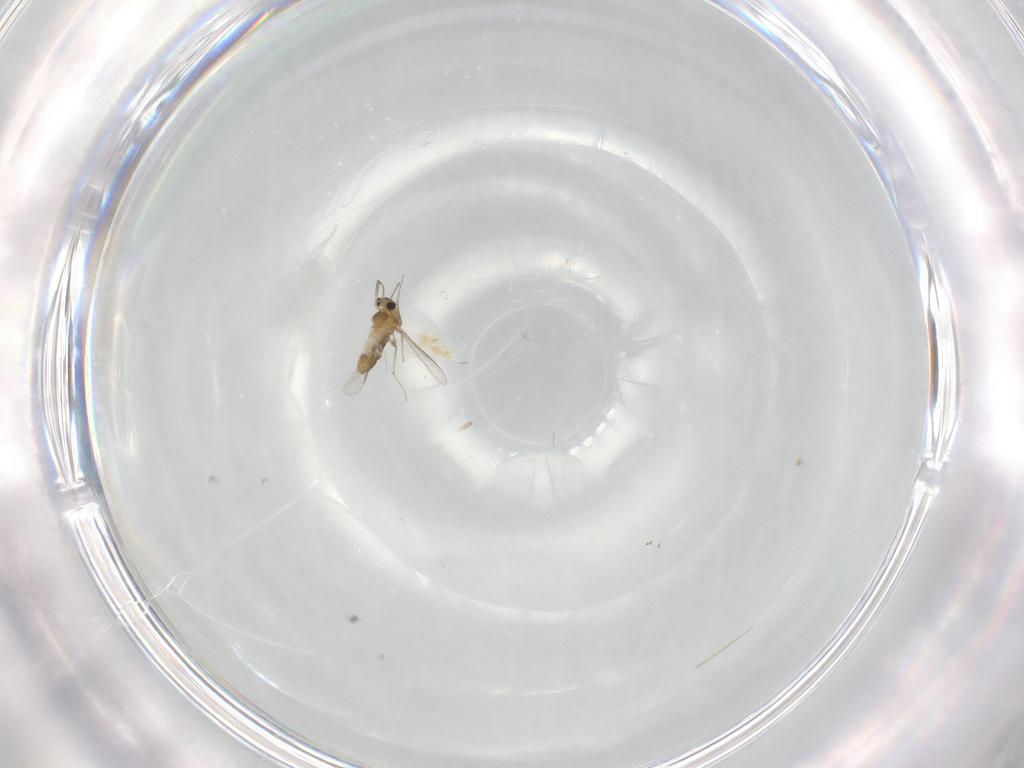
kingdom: Animalia
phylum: Arthropoda
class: Insecta
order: Diptera
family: Chironomidae
